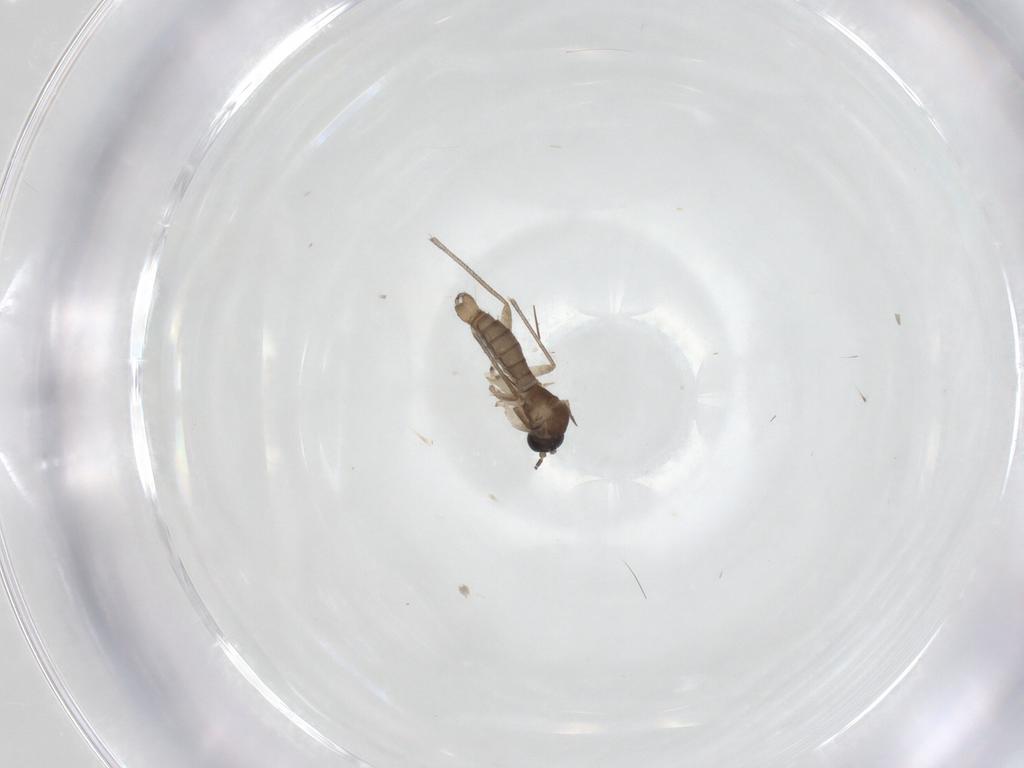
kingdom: Animalia
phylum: Arthropoda
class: Insecta
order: Diptera
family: Sciaridae
